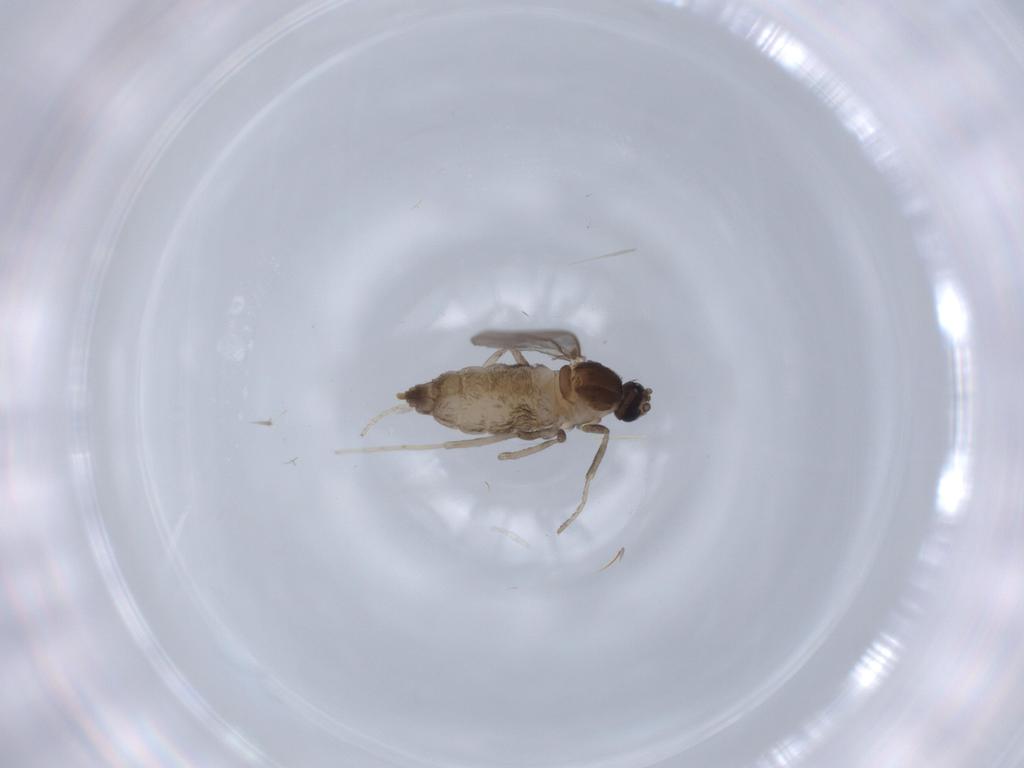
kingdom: Animalia
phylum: Arthropoda
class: Insecta
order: Diptera
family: Cecidomyiidae
